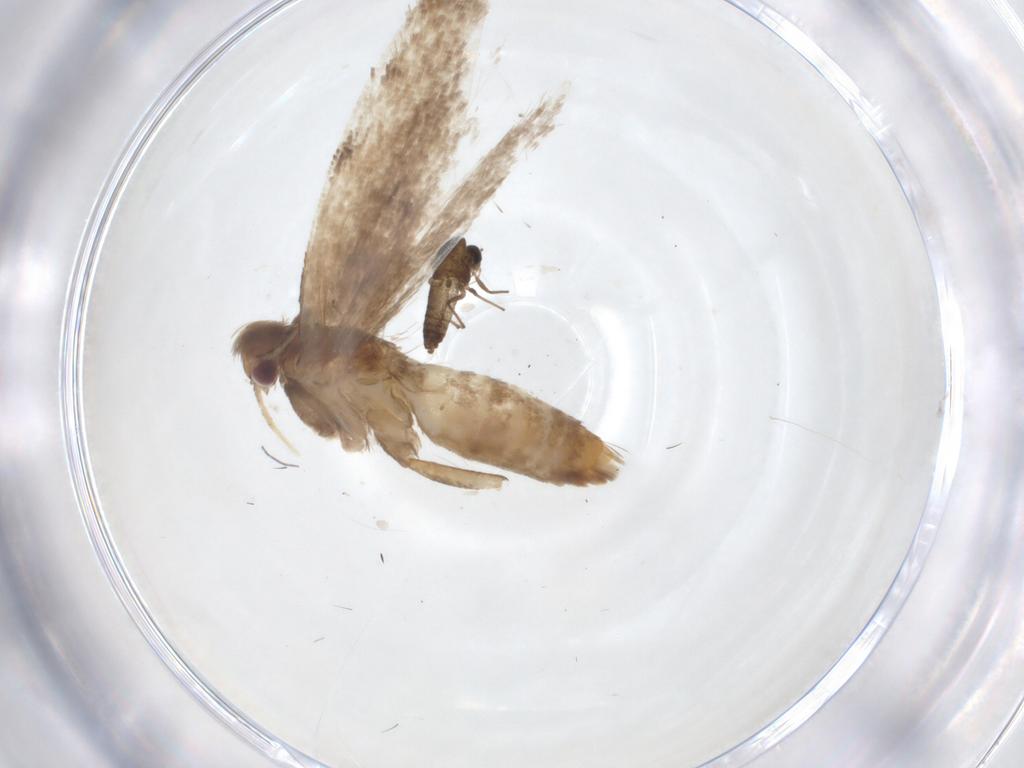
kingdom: Animalia
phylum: Arthropoda
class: Insecta
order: Lepidoptera
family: Gelechiidae
